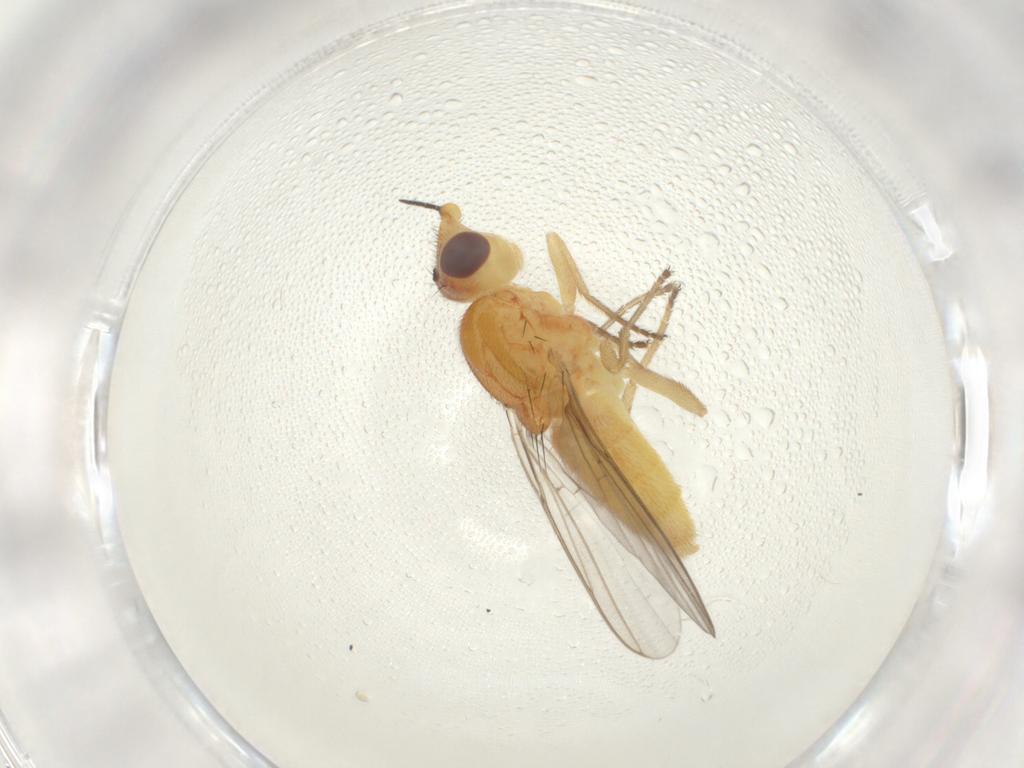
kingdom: Animalia
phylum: Arthropoda
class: Insecta
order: Diptera
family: Chloropidae
